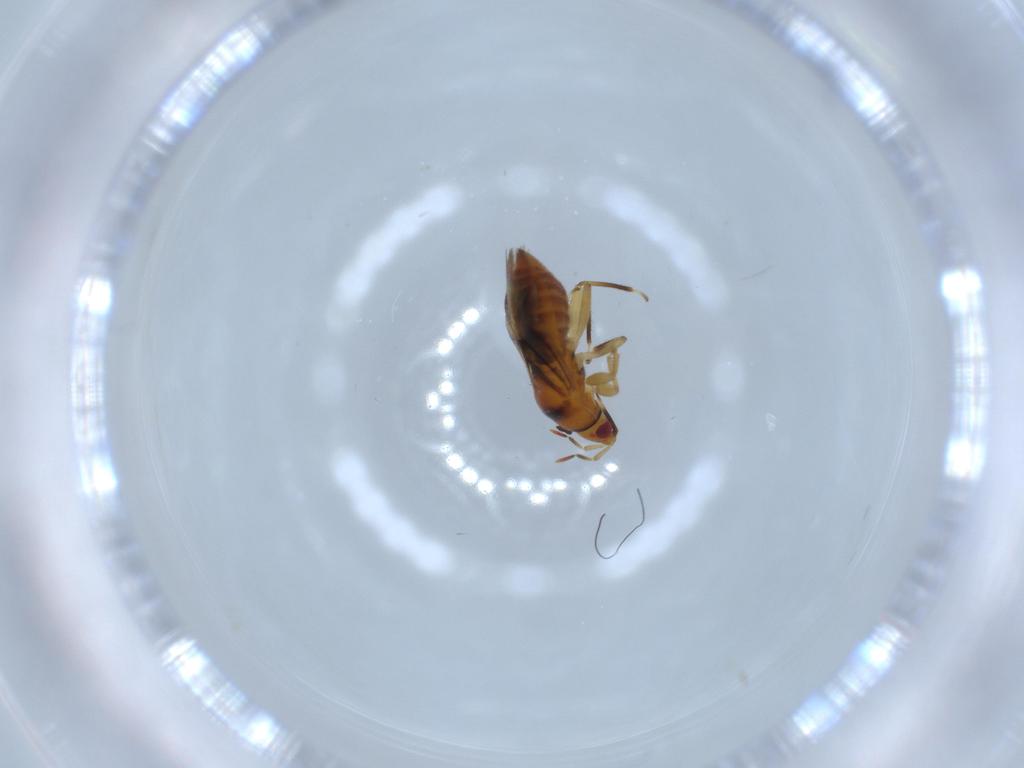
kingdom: Animalia
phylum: Arthropoda
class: Insecta
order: Hemiptera
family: Anthocoridae
